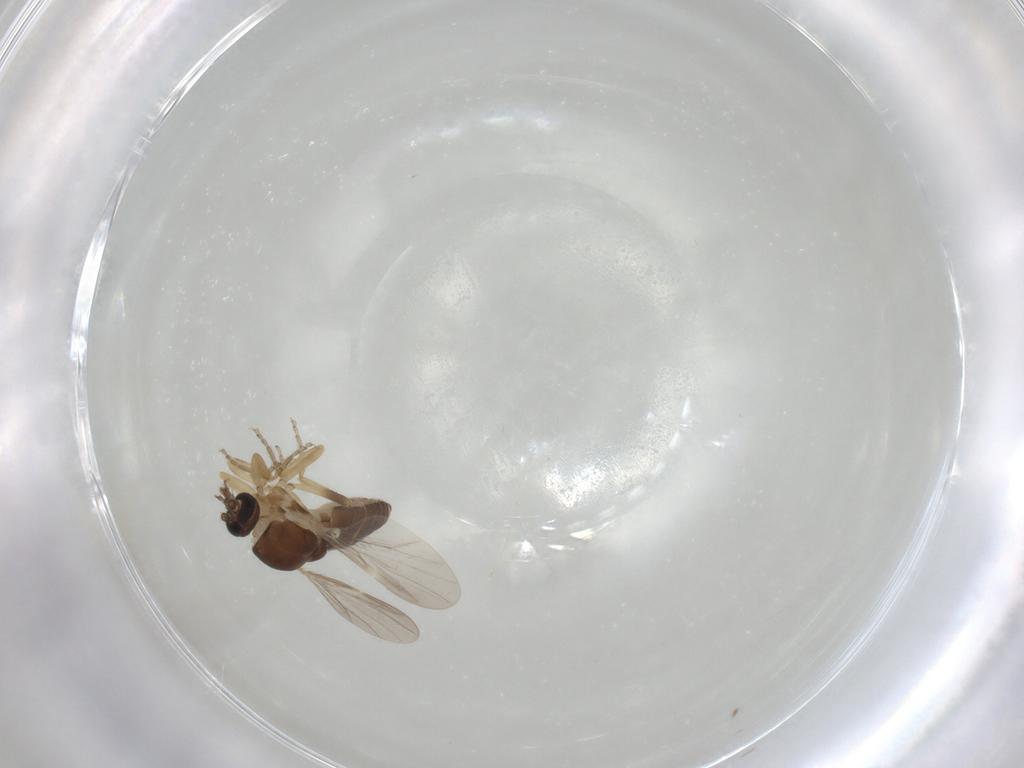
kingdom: Animalia
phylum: Arthropoda
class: Insecta
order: Diptera
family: Ceratopogonidae
